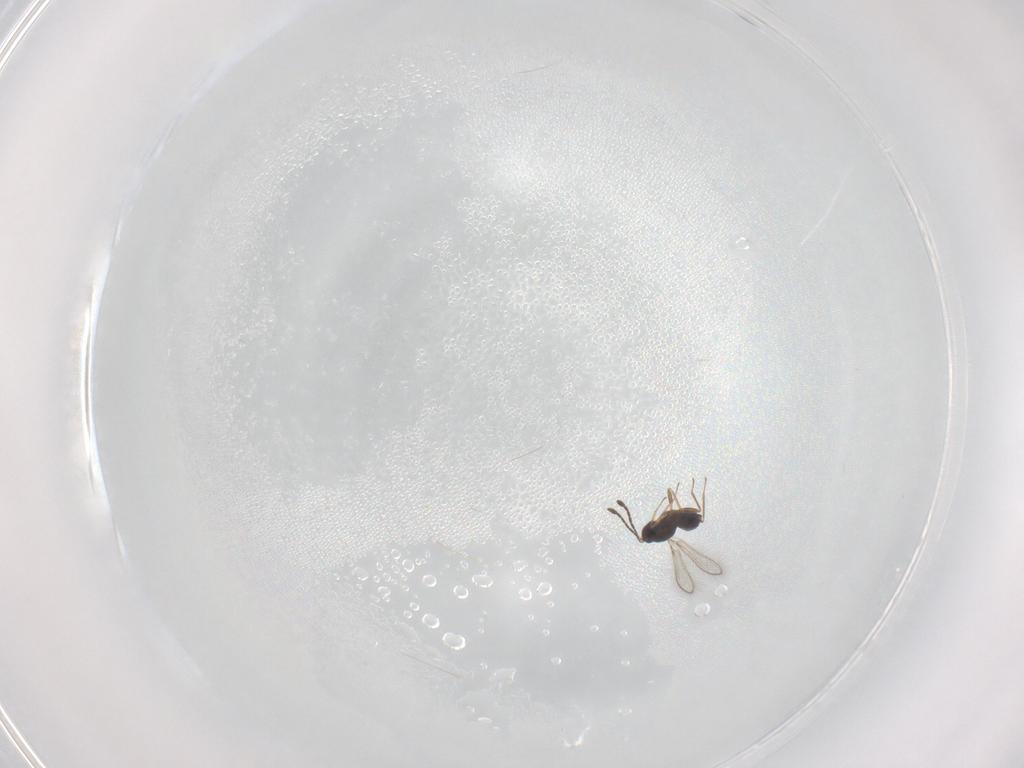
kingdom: Animalia
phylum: Arthropoda
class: Insecta
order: Hymenoptera
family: Mymaridae
